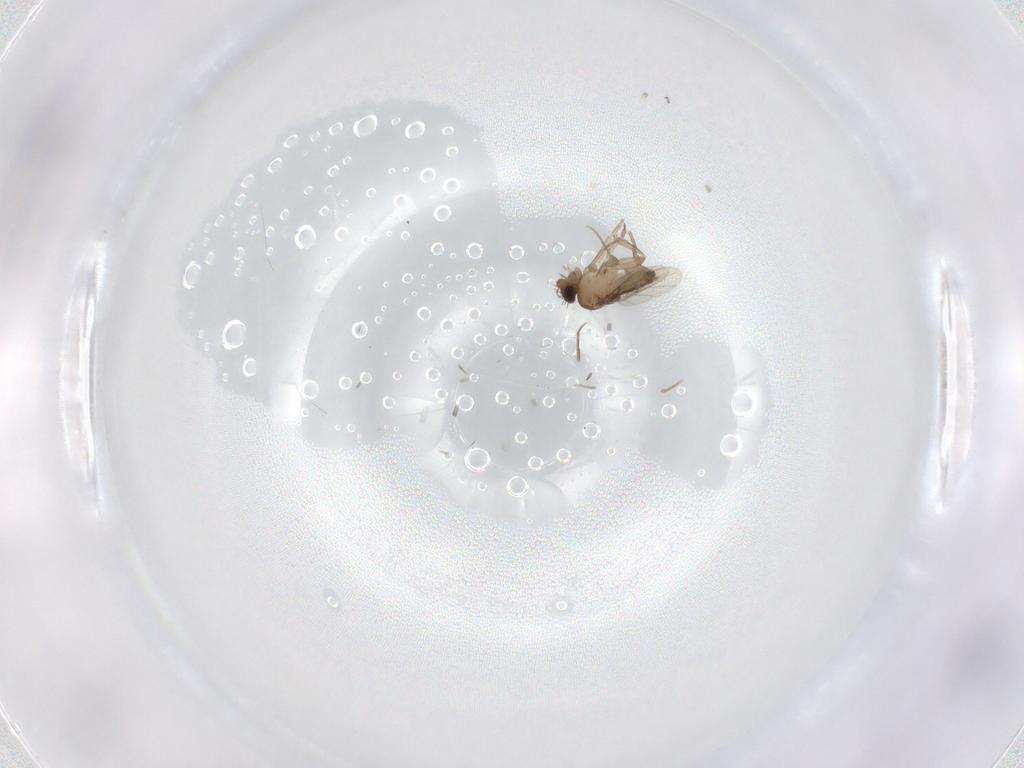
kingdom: Animalia
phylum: Arthropoda
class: Insecta
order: Diptera
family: Phoridae
